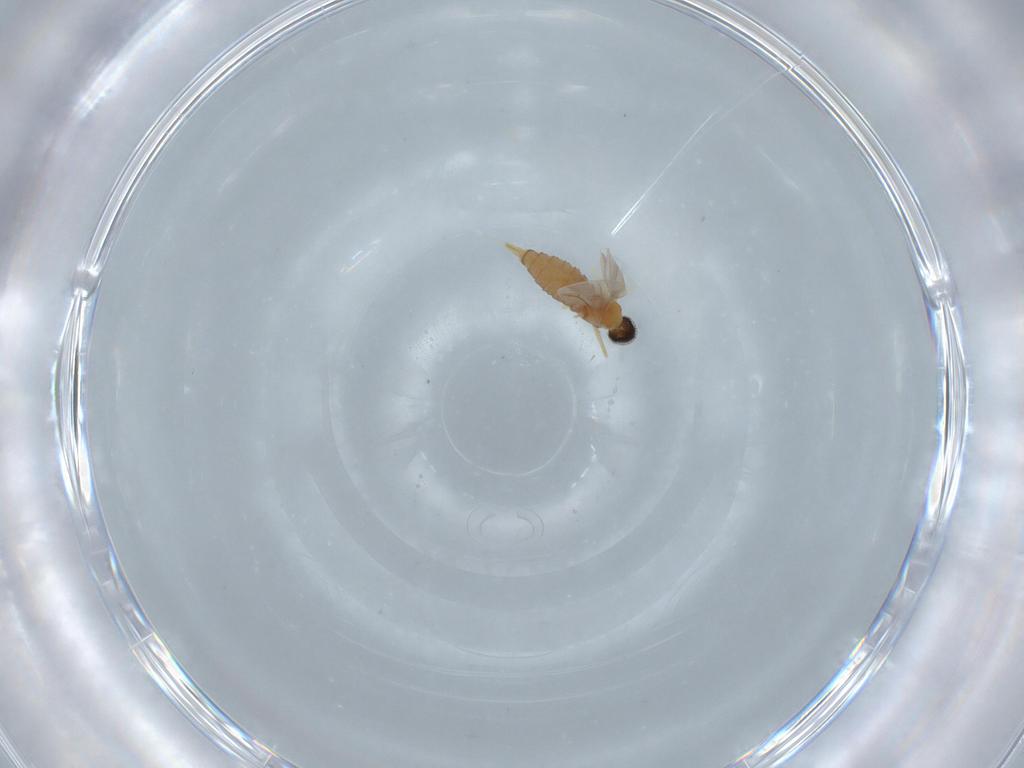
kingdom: Animalia
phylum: Arthropoda
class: Insecta
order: Diptera
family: Cecidomyiidae
